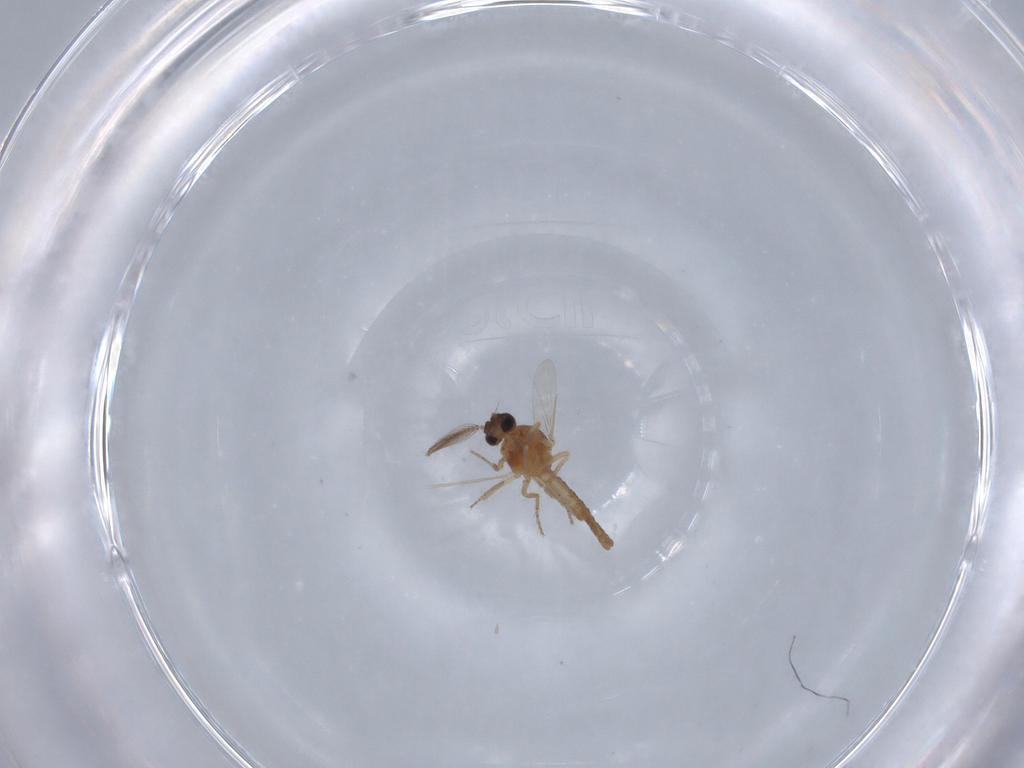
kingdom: Animalia
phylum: Arthropoda
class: Insecta
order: Diptera
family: Ceratopogonidae
